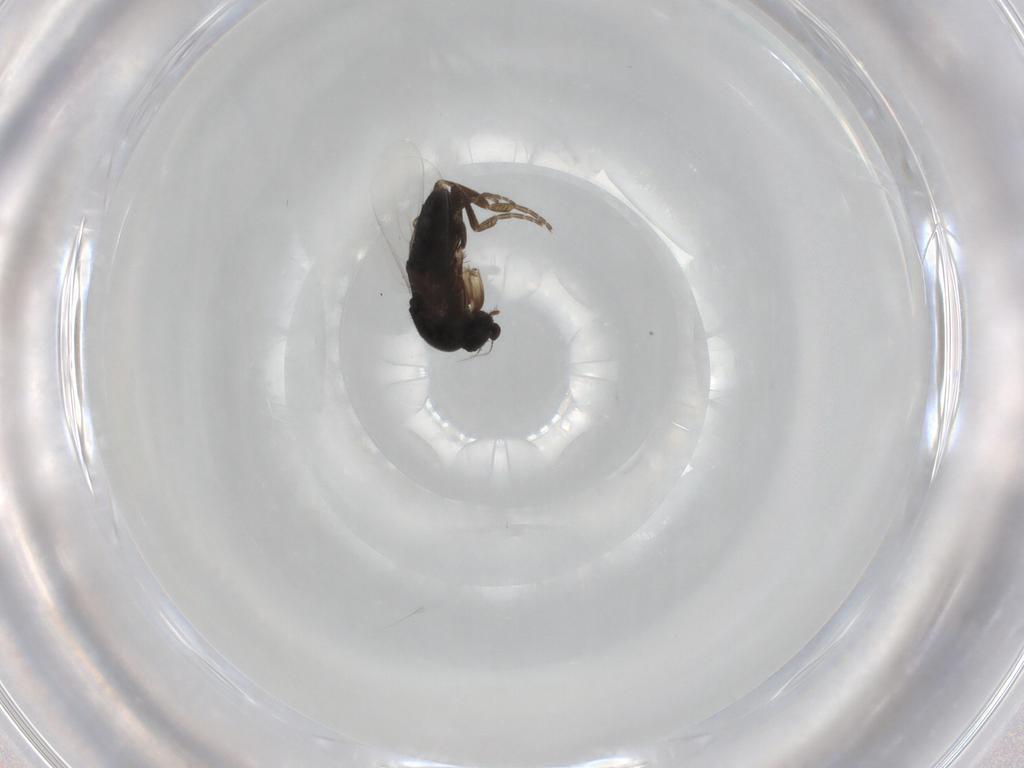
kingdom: Animalia
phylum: Arthropoda
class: Insecta
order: Diptera
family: Phoridae
